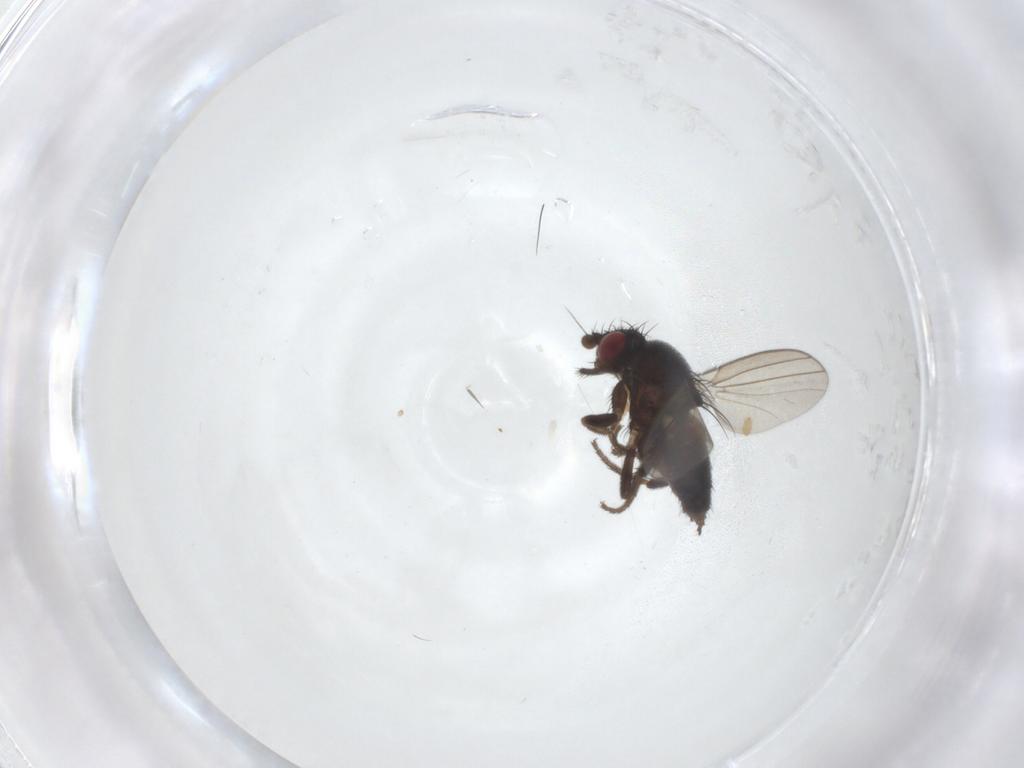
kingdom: Animalia
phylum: Arthropoda
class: Insecta
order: Diptera
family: Milichiidae
